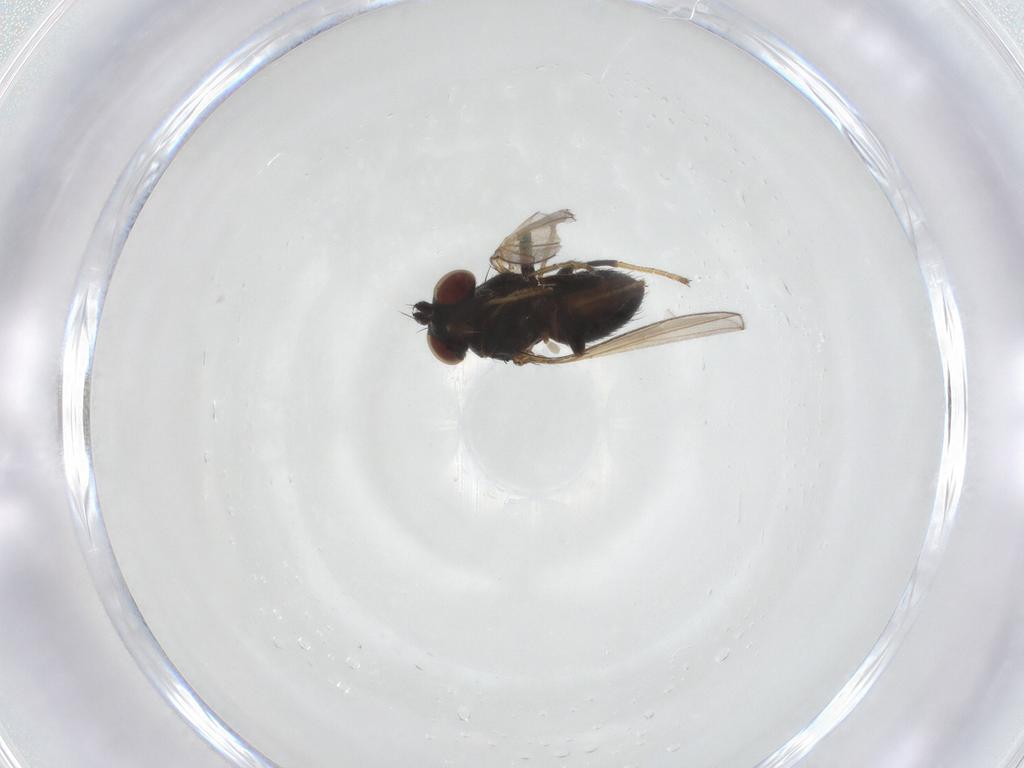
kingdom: Animalia
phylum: Arthropoda
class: Insecta
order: Diptera
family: Ephydridae
